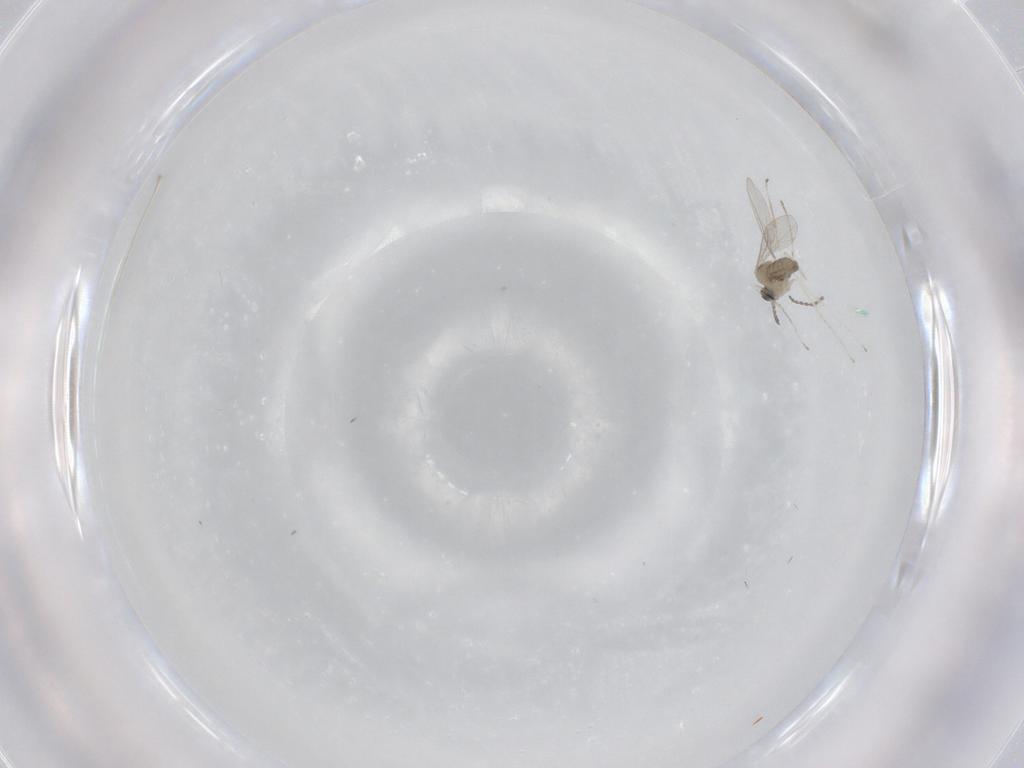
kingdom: Animalia
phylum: Arthropoda
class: Insecta
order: Diptera
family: Cecidomyiidae
